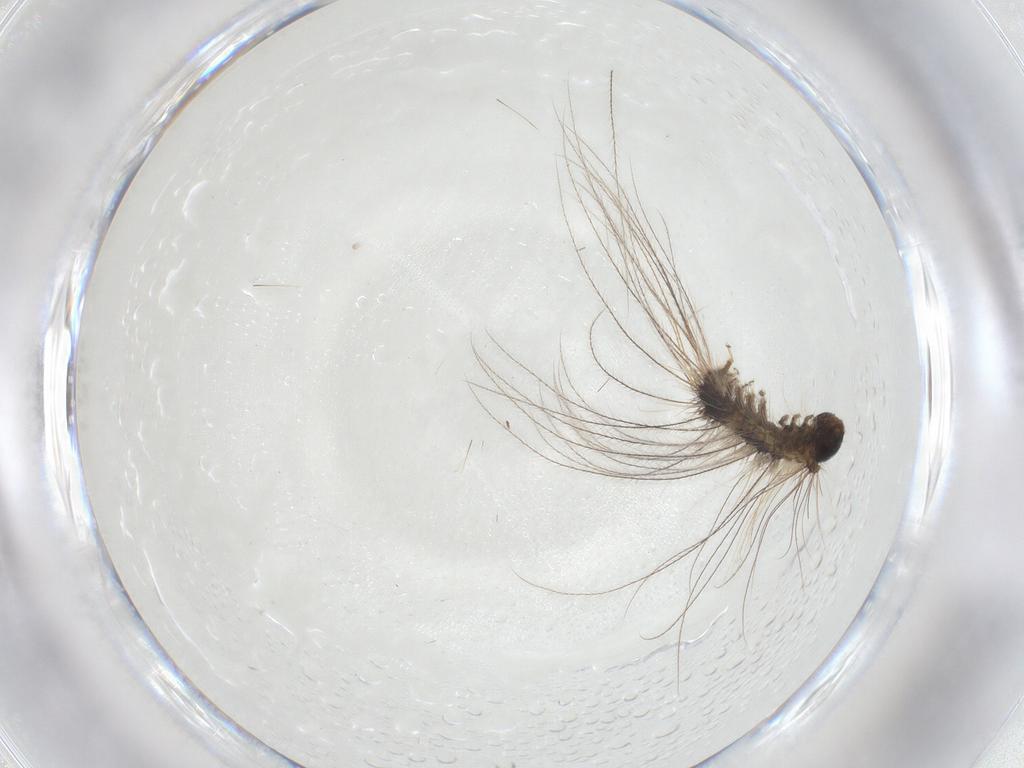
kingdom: Animalia
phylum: Arthropoda
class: Insecta
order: Lepidoptera
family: Erebidae
